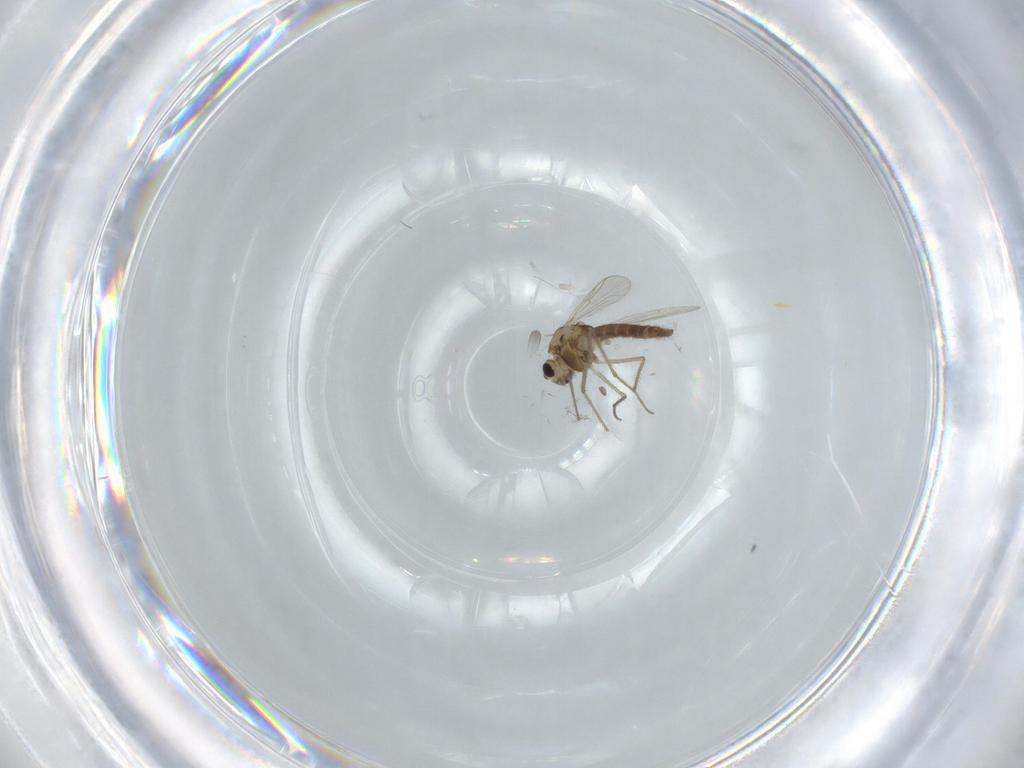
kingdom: Animalia
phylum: Arthropoda
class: Insecta
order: Diptera
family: Chironomidae
